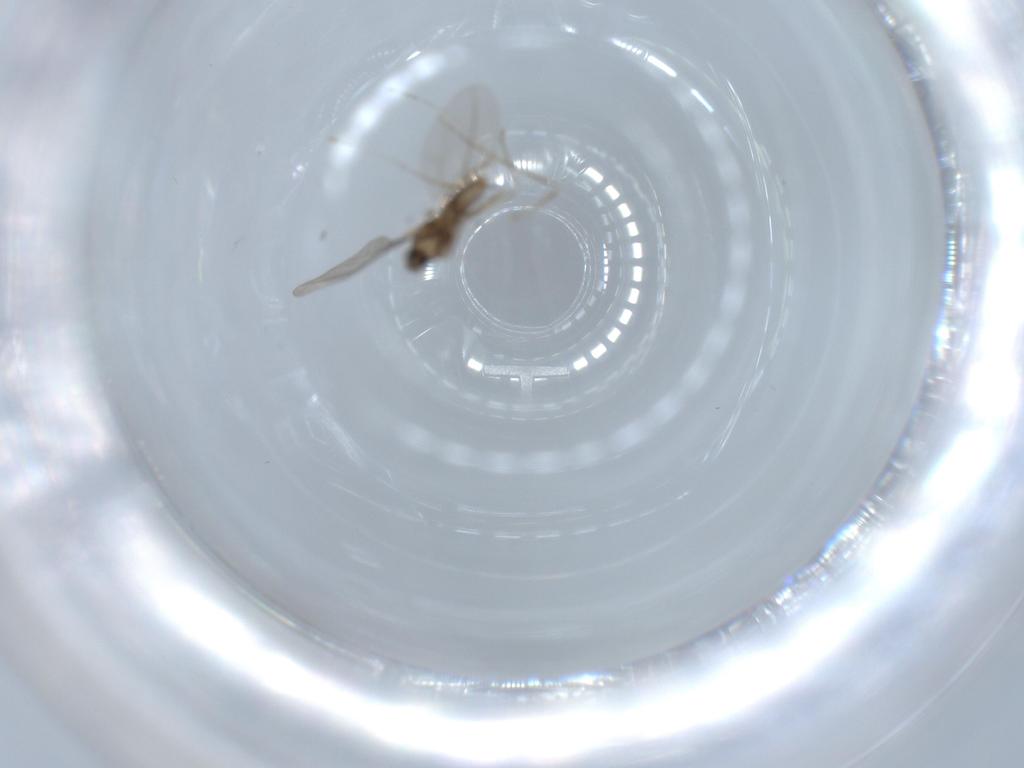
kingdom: Animalia
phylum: Arthropoda
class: Insecta
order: Diptera
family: Cecidomyiidae
